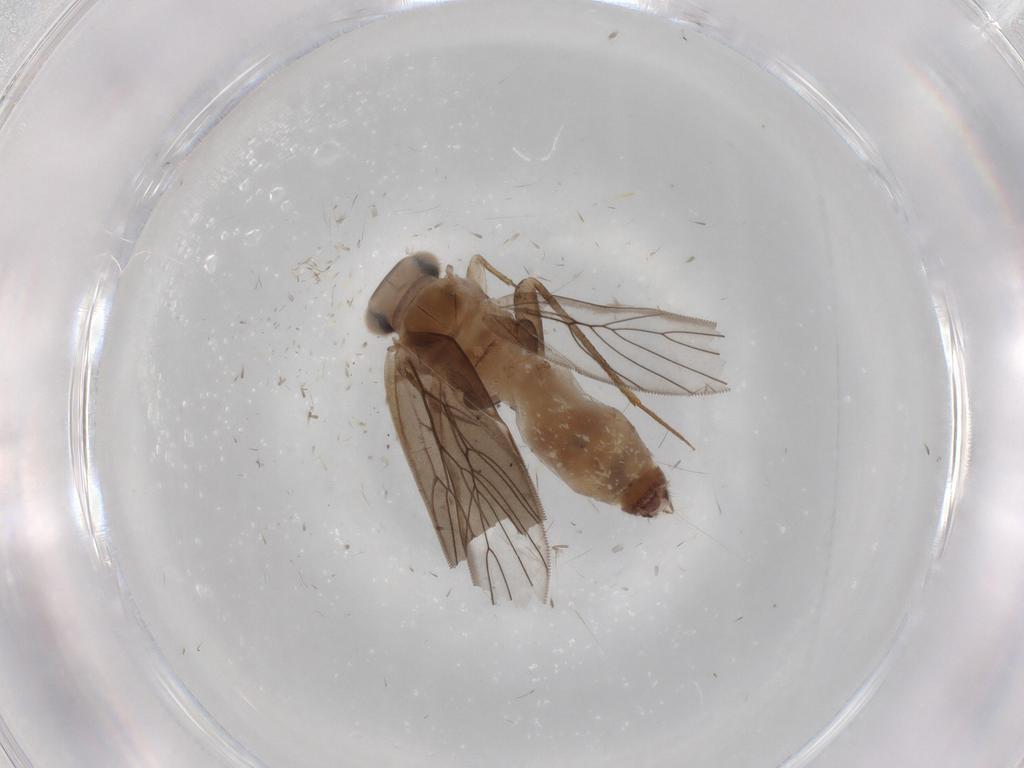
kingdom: Animalia
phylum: Arthropoda
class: Insecta
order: Psocodea
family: Lepidopsocidae
